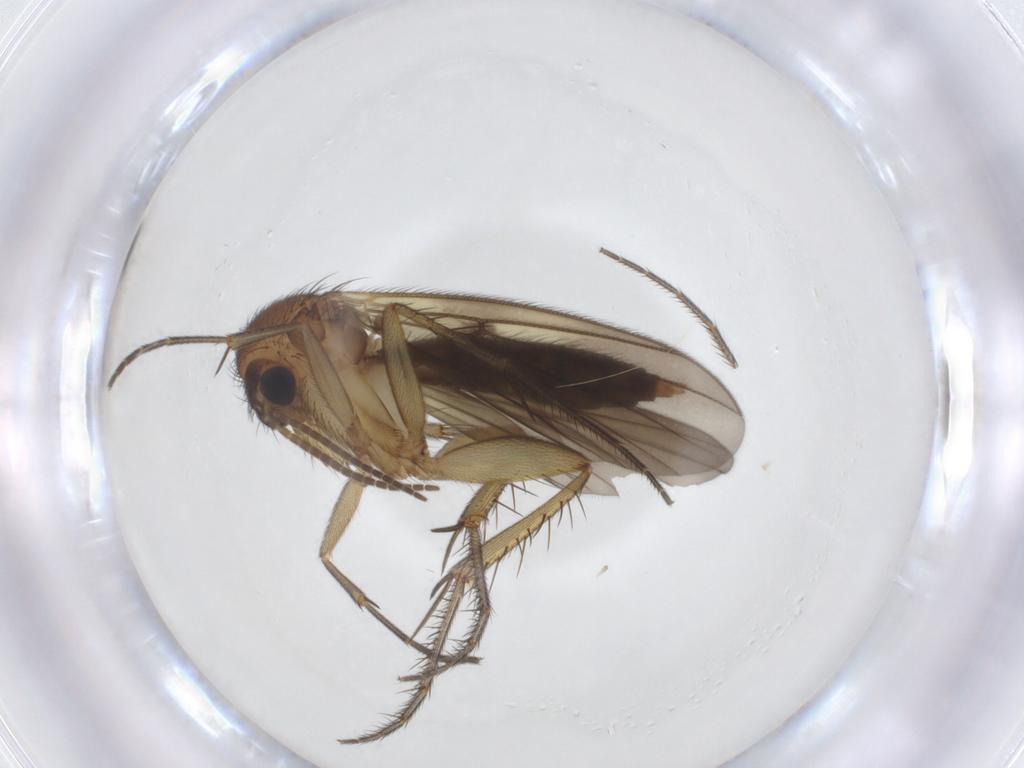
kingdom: Animalia
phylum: Arthropoda
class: Insecta
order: Diptera
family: Mycetophilidae
